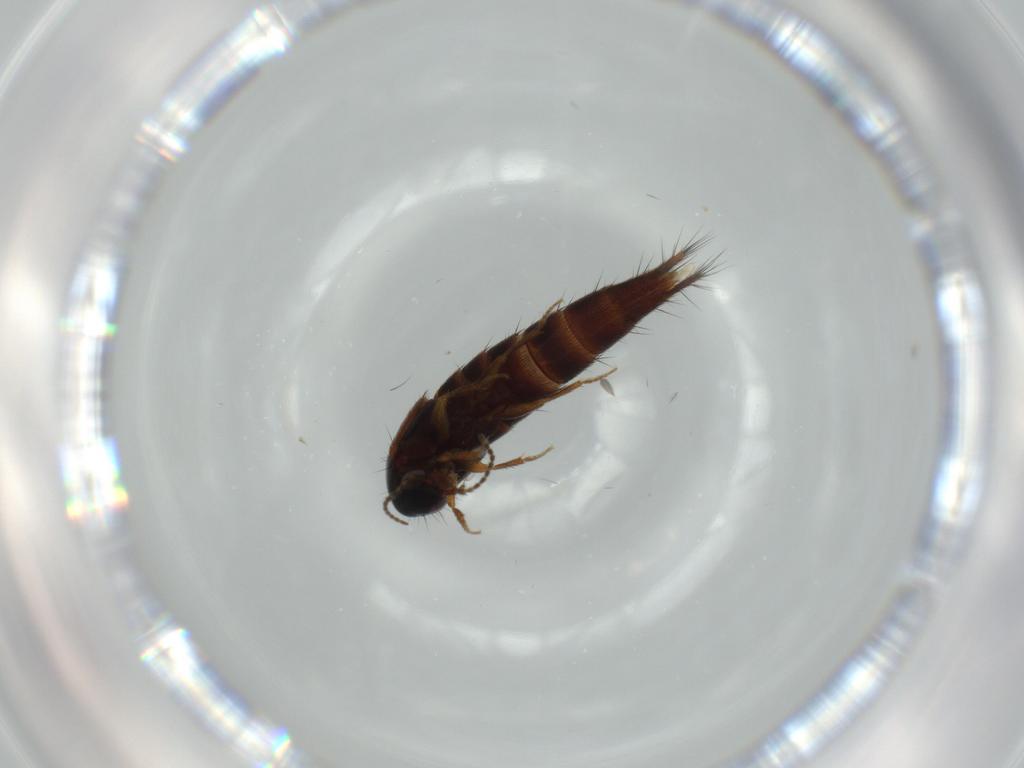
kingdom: Animalia
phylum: Arthropoda
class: Insecta
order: Coleoptera
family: Staphylinidae
